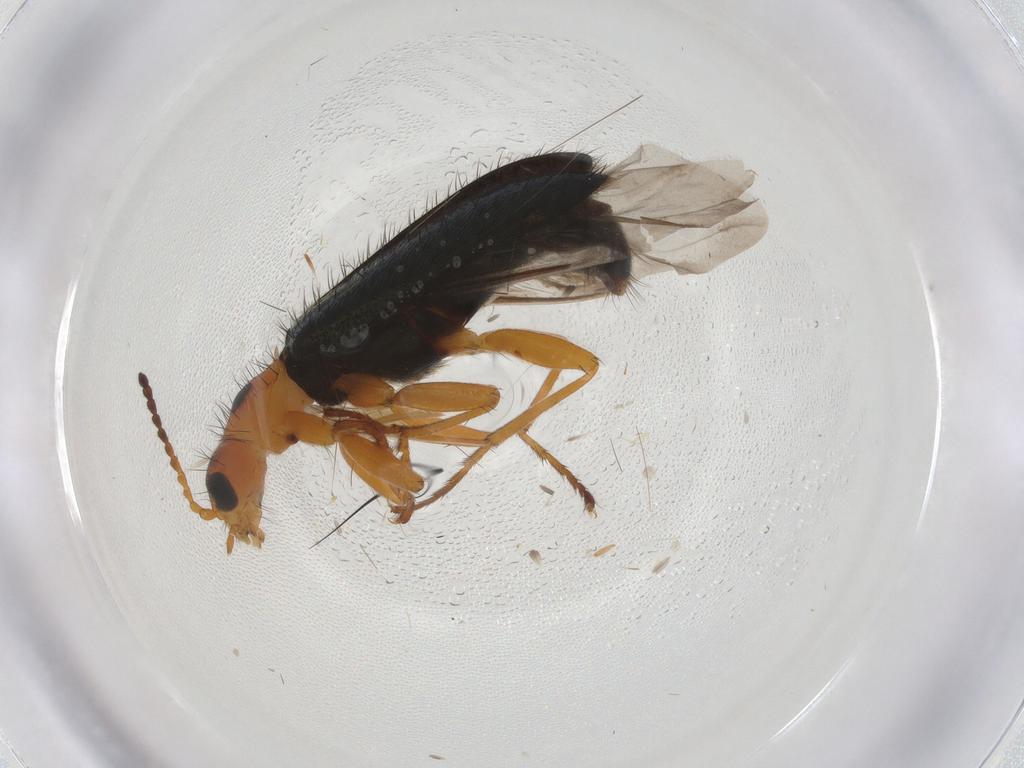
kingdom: Animalia
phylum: Arthropoda
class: Insecta
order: Coleoptera
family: Melyridae
